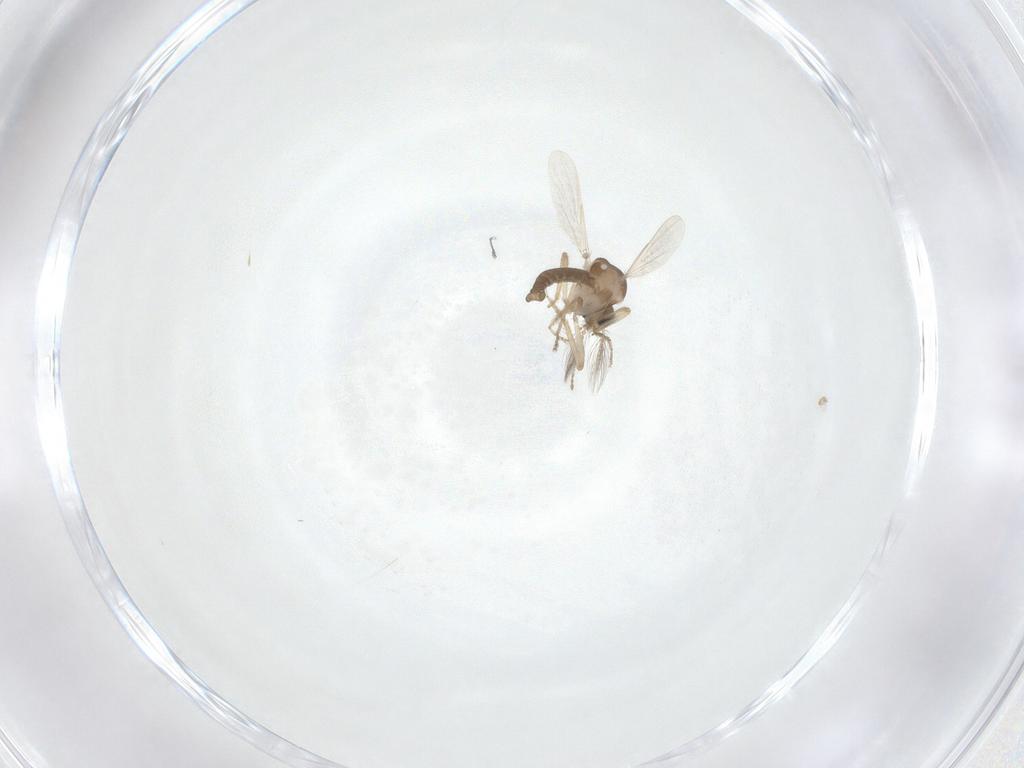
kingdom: Animalia
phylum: Arthropoda
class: Insecta
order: Diptera
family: Ceratopogonidae
